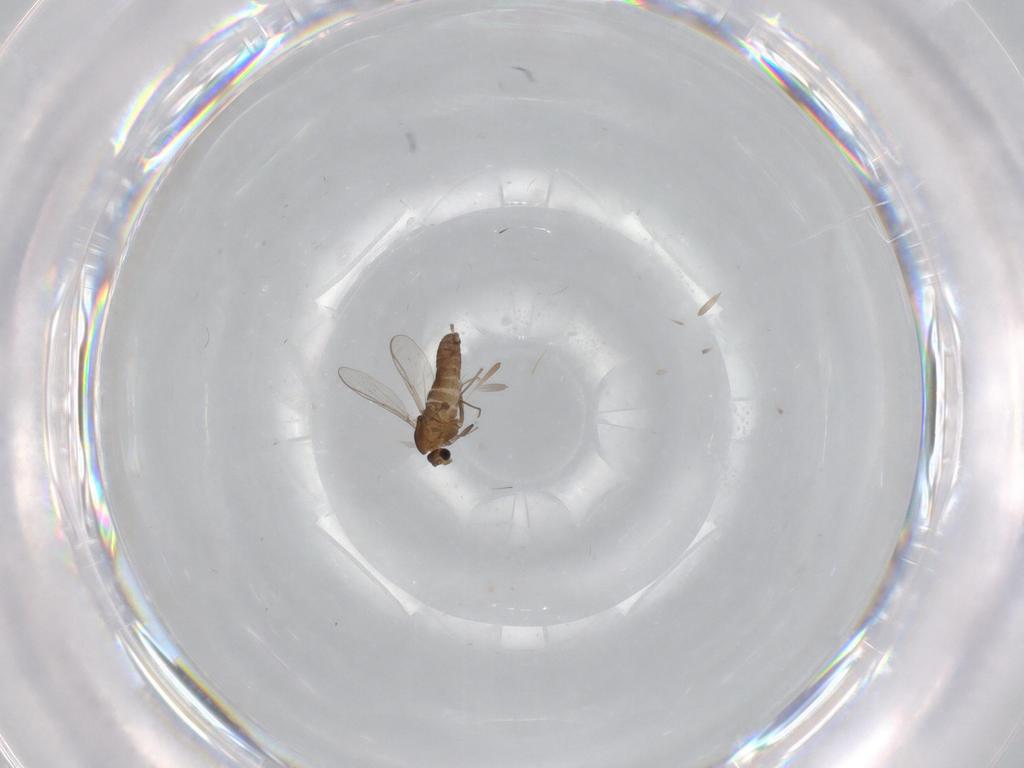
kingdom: Animalia
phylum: Arthropoda
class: Insecta
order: Diptera
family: Chironomidae
